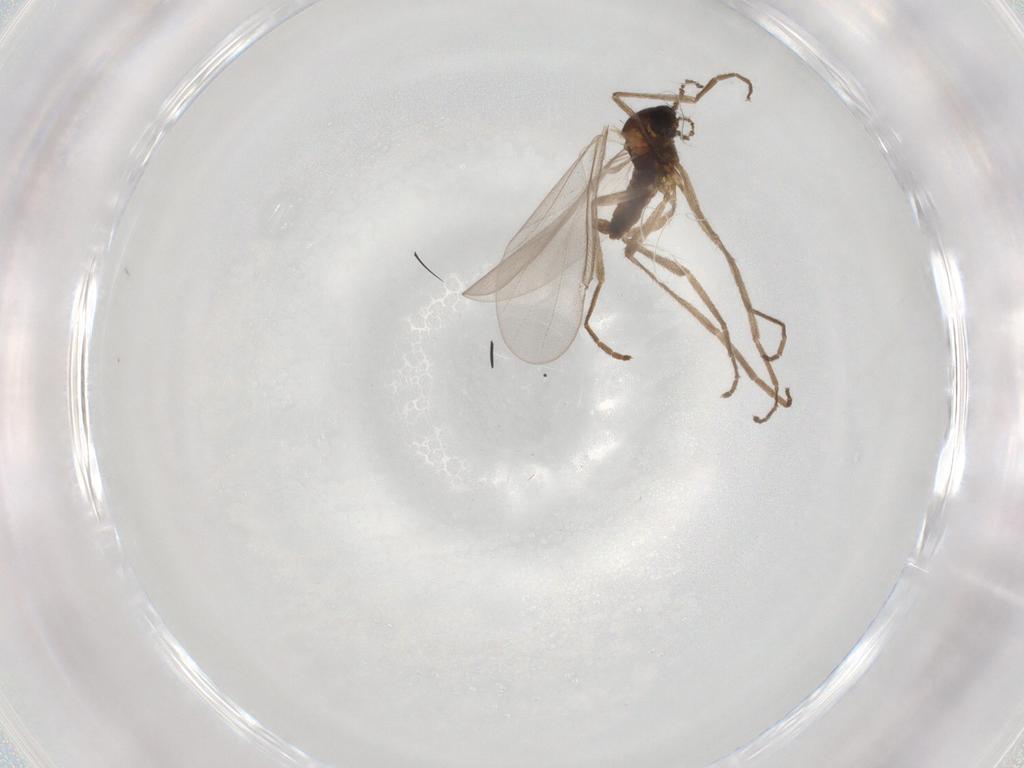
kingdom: Animalia
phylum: Arthropoda
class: Insecta
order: Diptera
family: Cecidomyiidae
